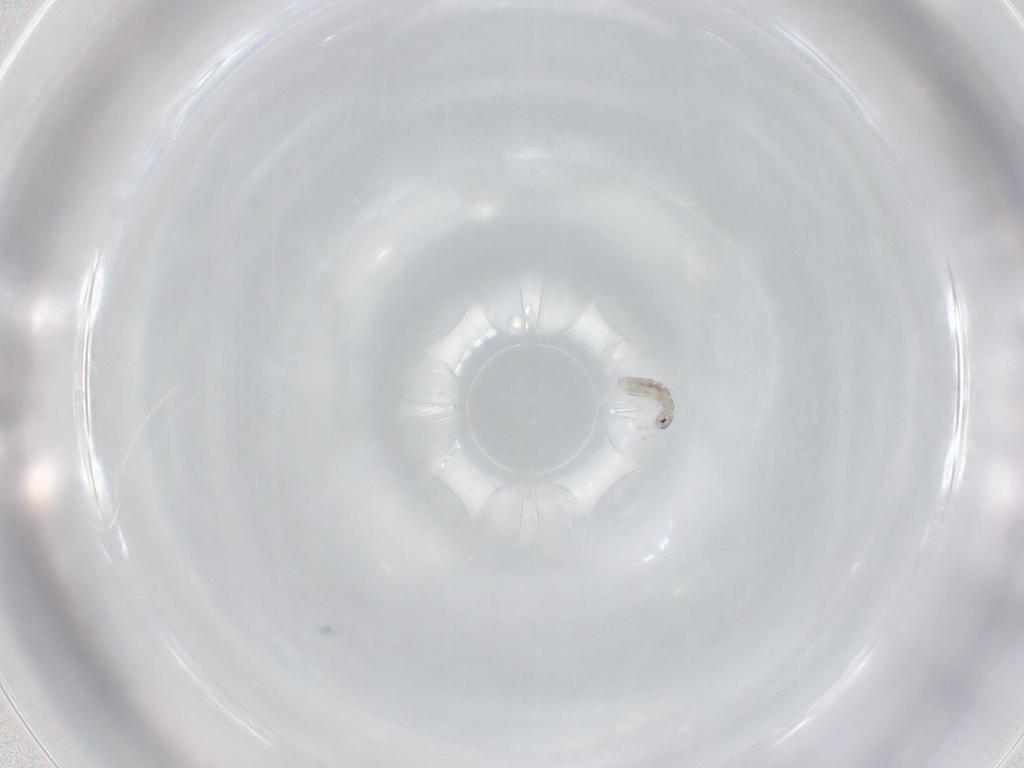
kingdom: Animalia
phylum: Arthropoda
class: Collembola
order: Entomobryomorpha
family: Isotomidae
